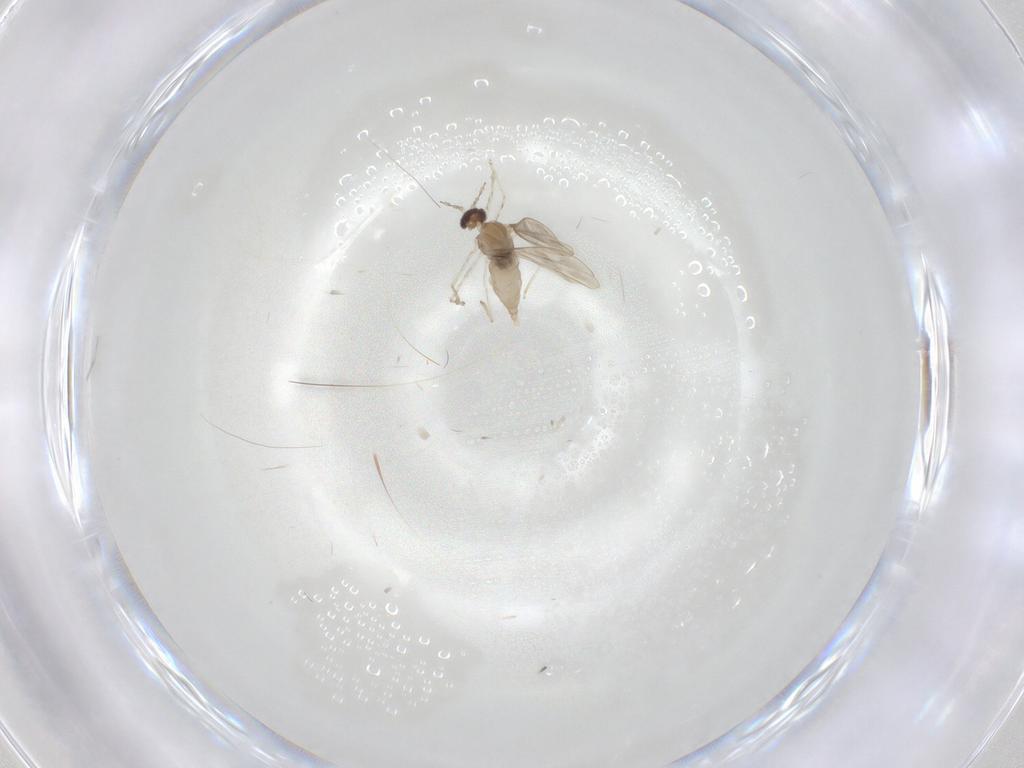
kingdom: Animalia
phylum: Arthropoda
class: Insecta
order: Diptera
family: Cecidomyiidae
